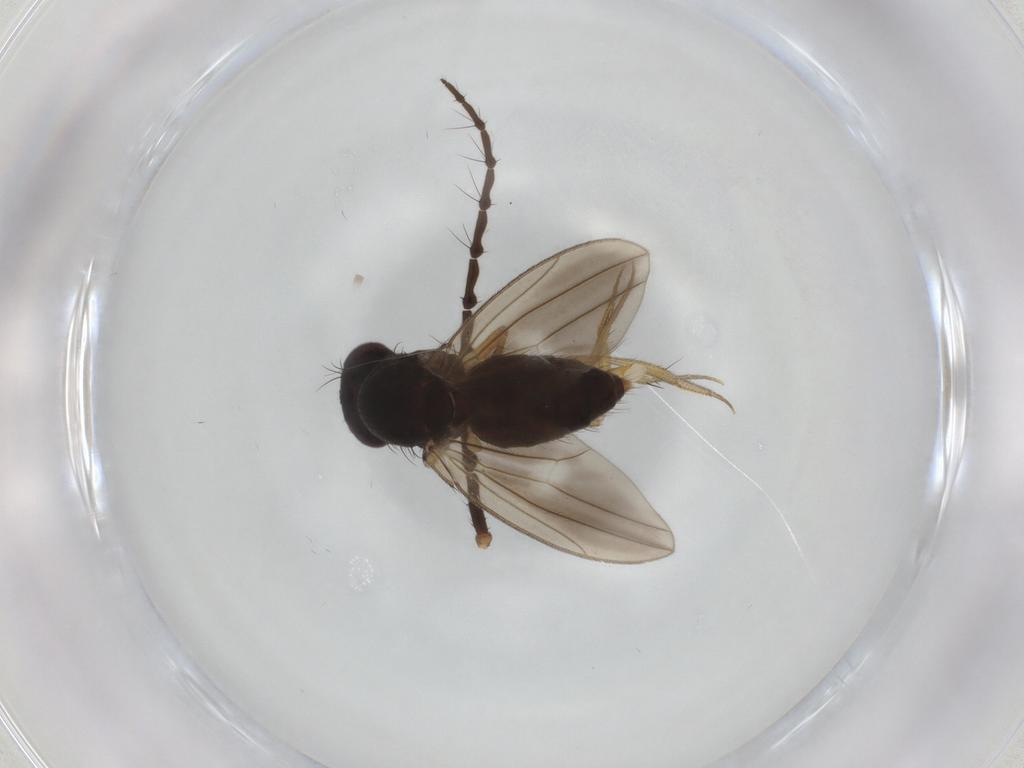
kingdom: Animalia
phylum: Arthropoda
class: Insecta
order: Diptera
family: Drosophilidae
